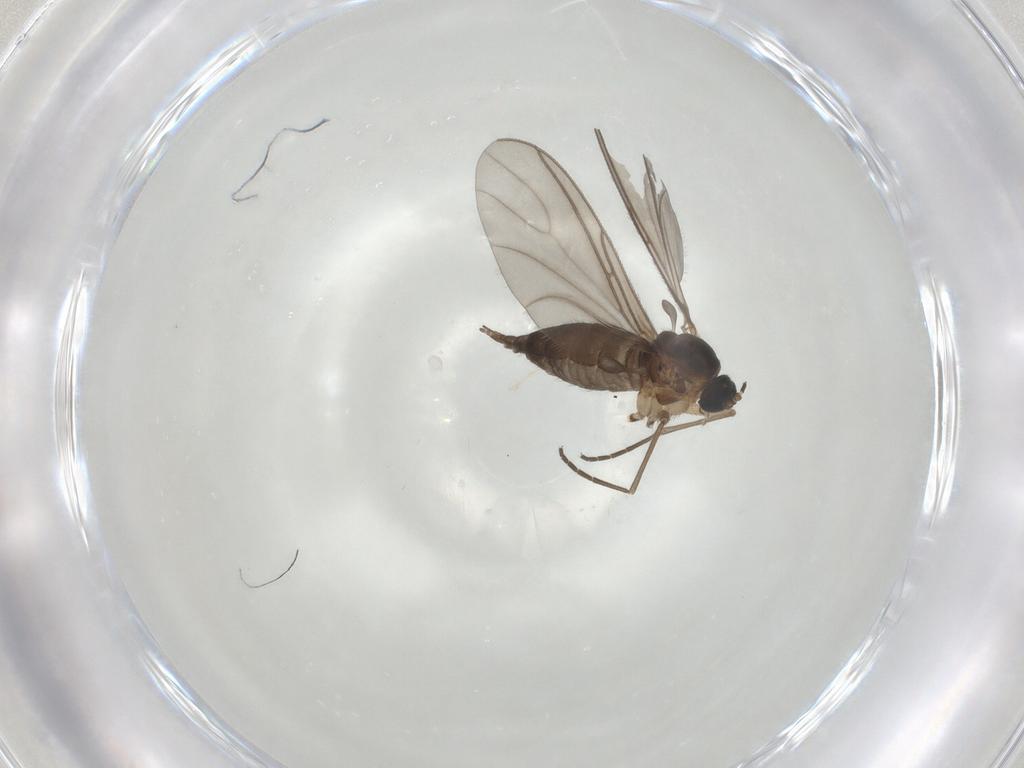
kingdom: Animalia
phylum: Arthropoda
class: Insecta
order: Diptera
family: Sciaridae
